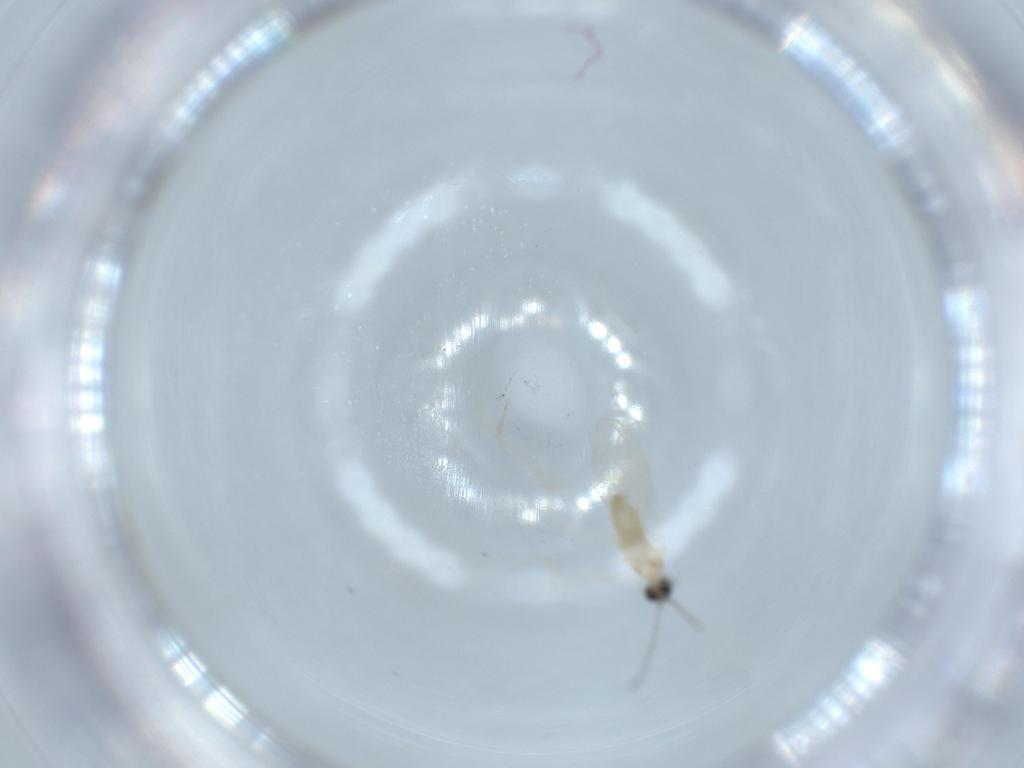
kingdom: Animalia
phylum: Arthropoda
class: Insecta
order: Diptera
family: Cecidomyiidae
